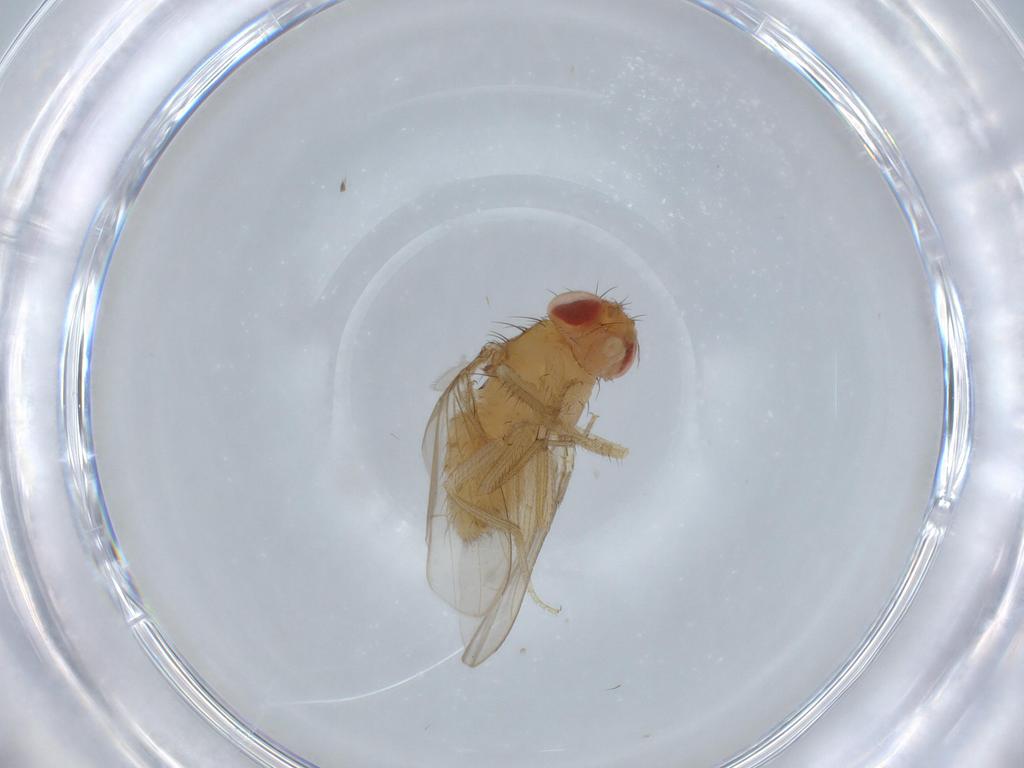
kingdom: Animalia
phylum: Arthropoda
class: Insecta
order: Diptera
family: Drosophilidae
